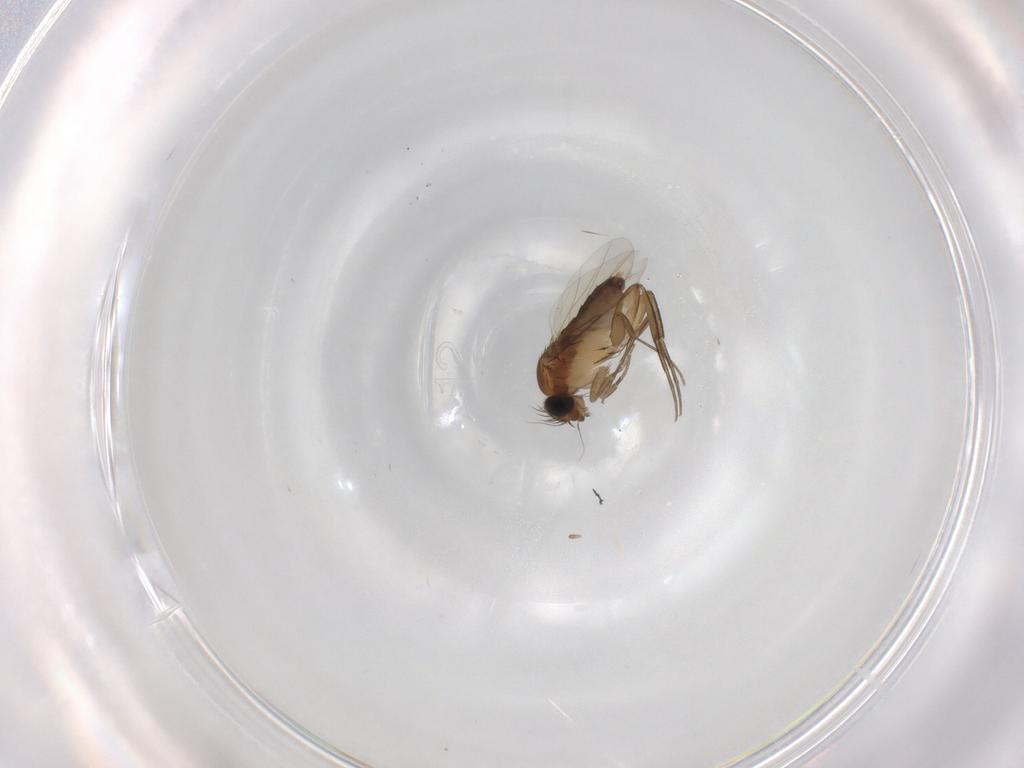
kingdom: Animalia
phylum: Arthropoda
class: Insecta
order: Diptera
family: Phoridae
